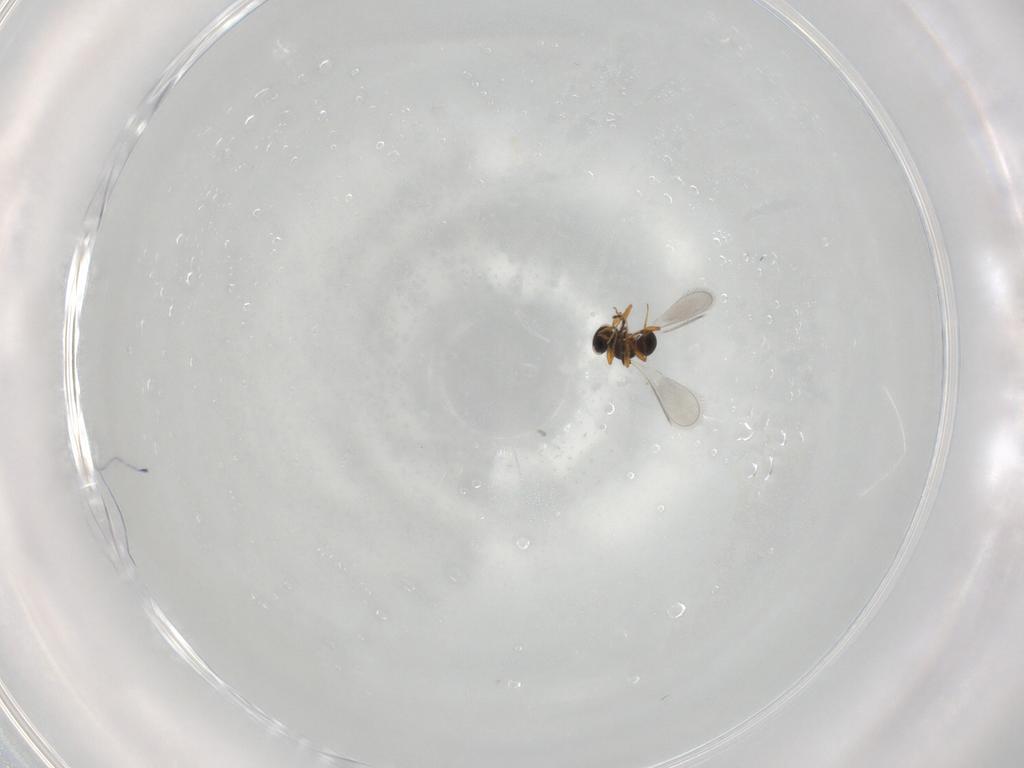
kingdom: Animalia
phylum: Arthropoda
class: Insecta
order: Hymenoptera
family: Platygastridae
